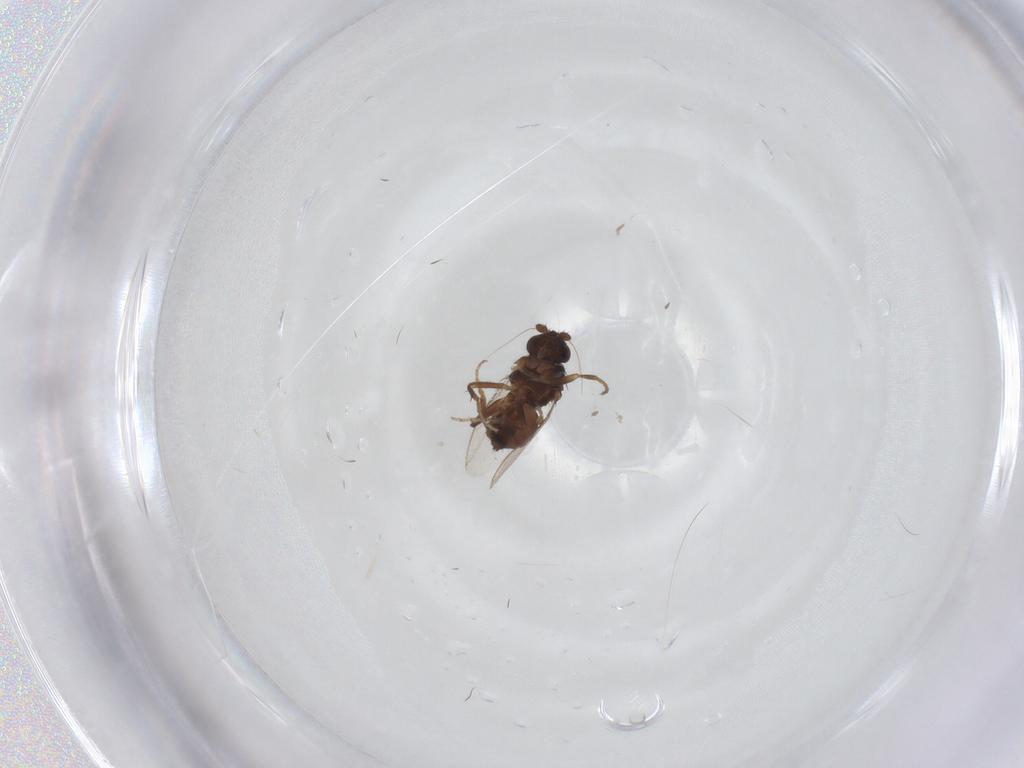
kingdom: Animalia
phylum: Arthropoda
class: Insecta
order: Diptera
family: Sphaeroceridae
